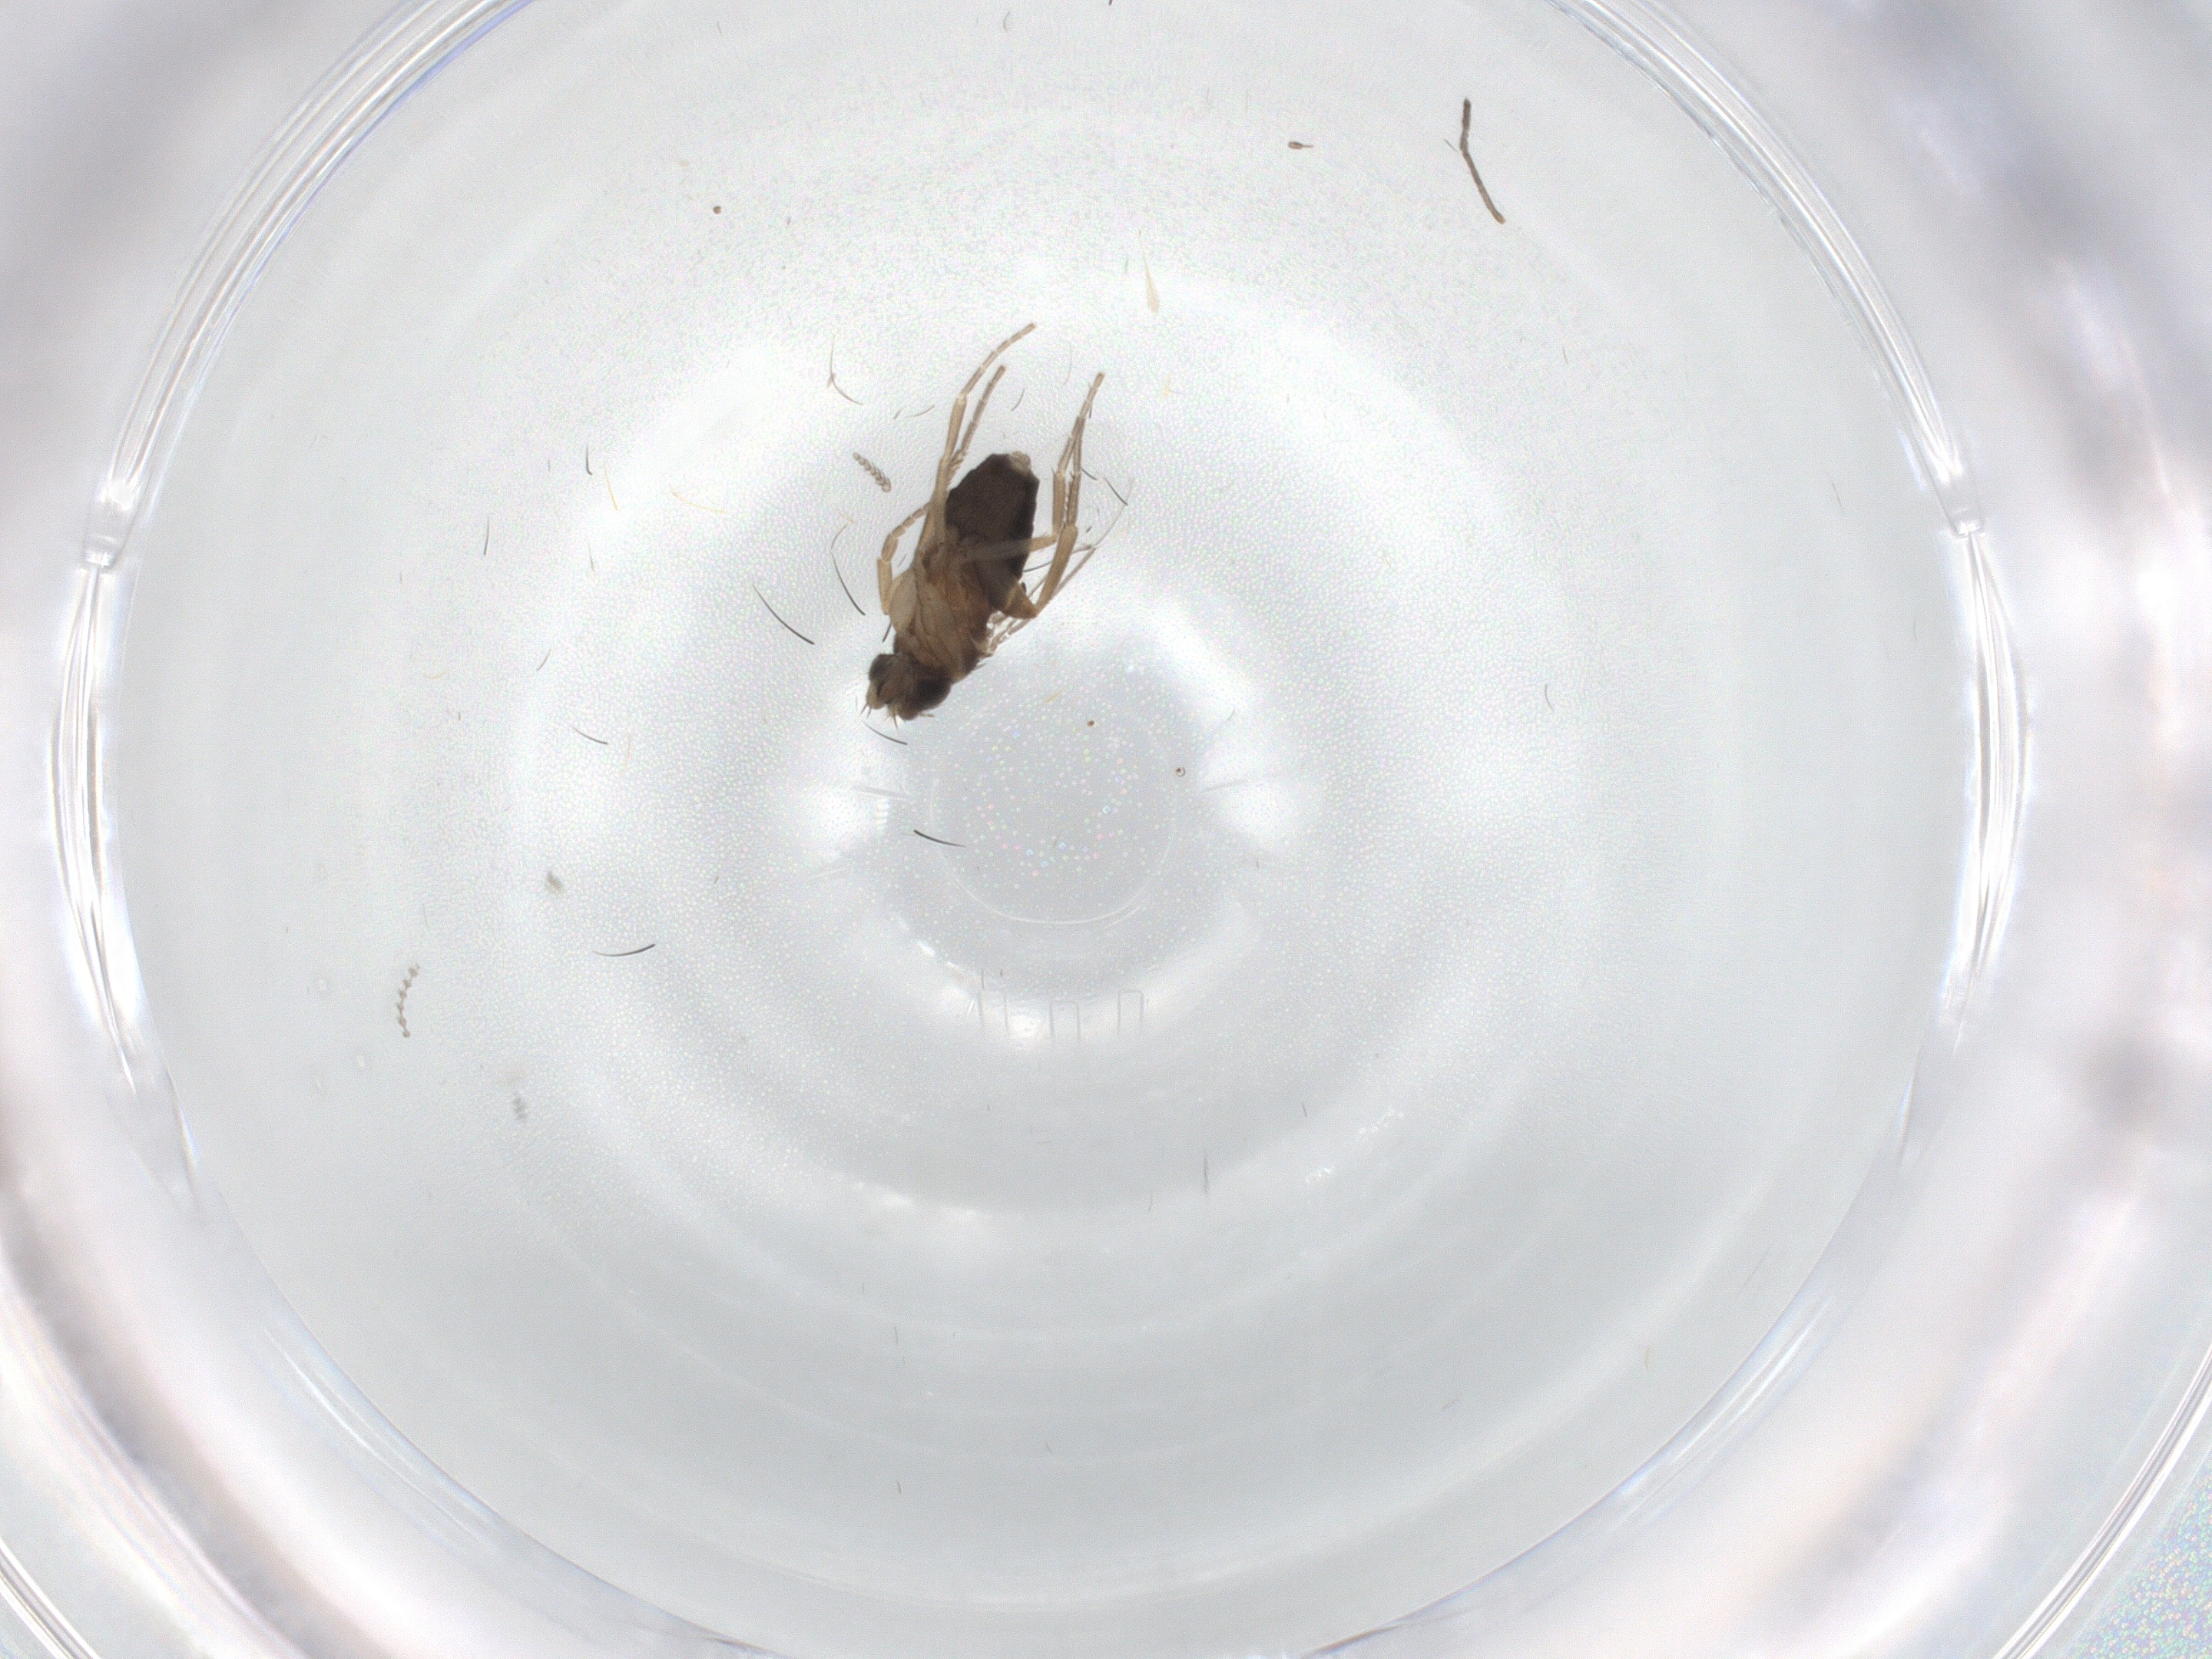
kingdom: Animalia
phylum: Arthropoda
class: Insecta
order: Diptera
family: Phoridae
